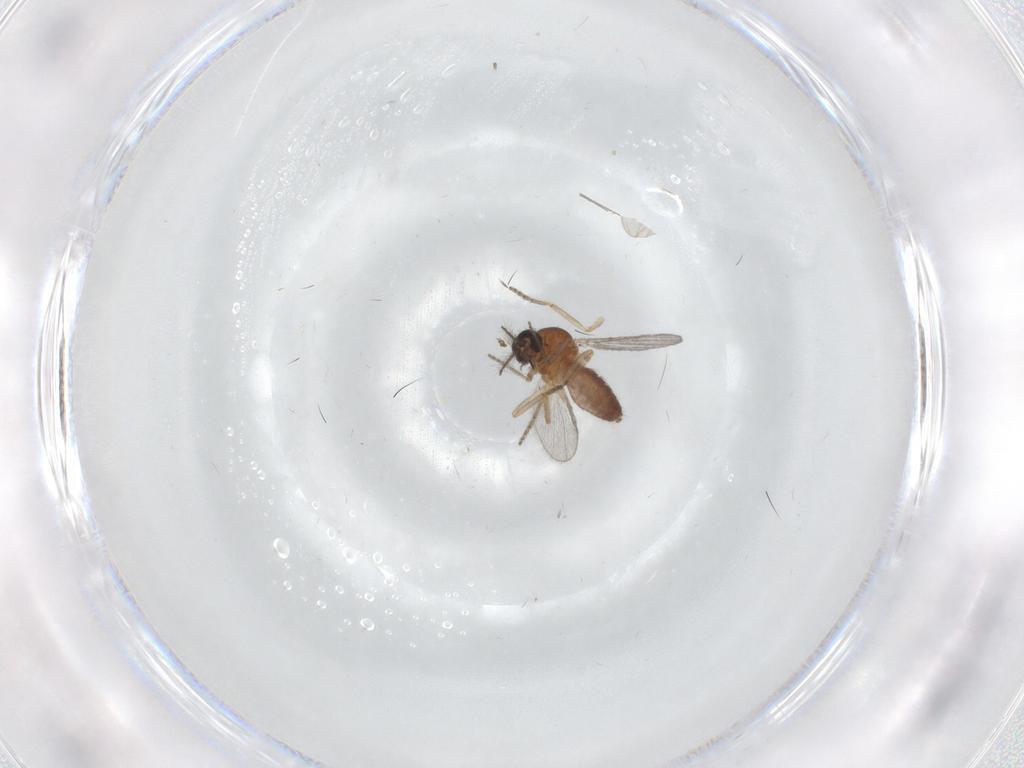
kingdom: Animalia
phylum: Arthropoda
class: Insecta
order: Diptera
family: Ceratopogonidae
